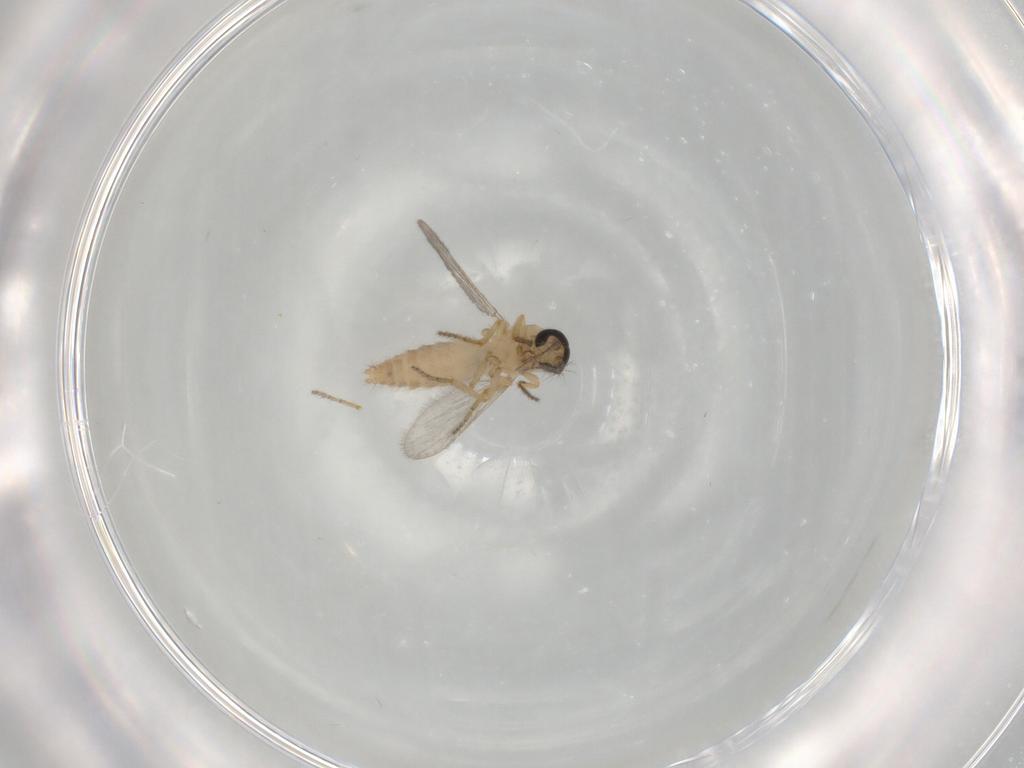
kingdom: Animalia
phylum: Arthropoda
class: Insecta
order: Diptera
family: Ceratopogonidae
